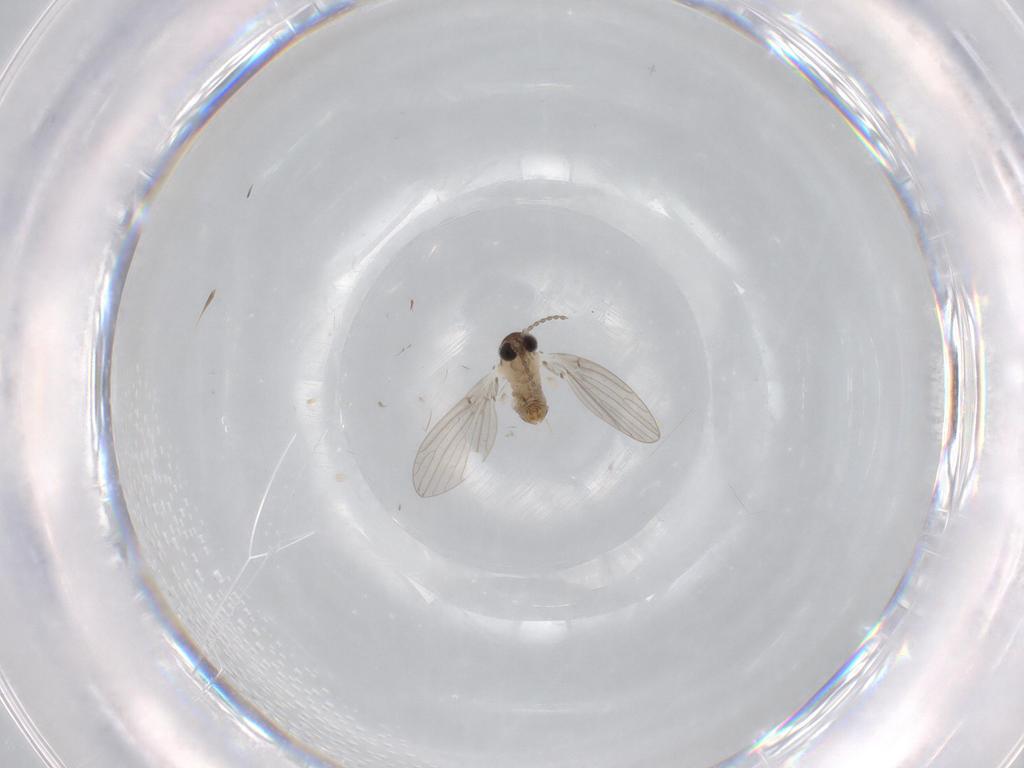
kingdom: Animalia
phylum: Arthropoda
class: Insecta
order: Diptera
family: Psychodidae
